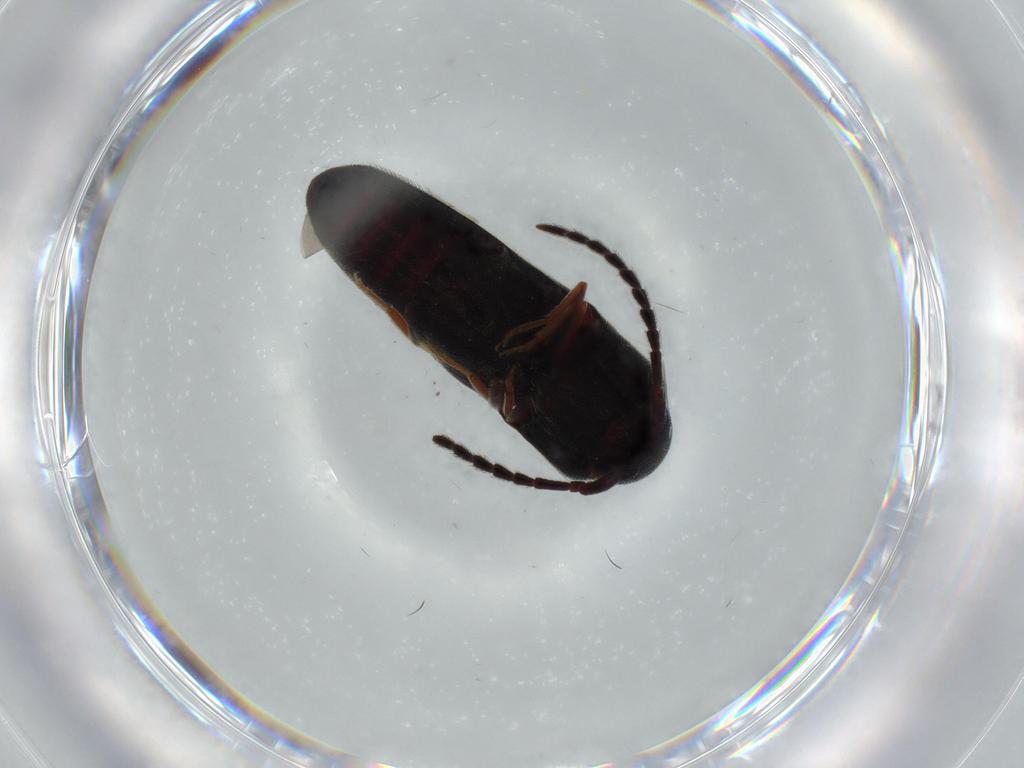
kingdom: Animalia
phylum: Arthropoda
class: Insecta
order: Coleoptera
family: Eucnemidae
